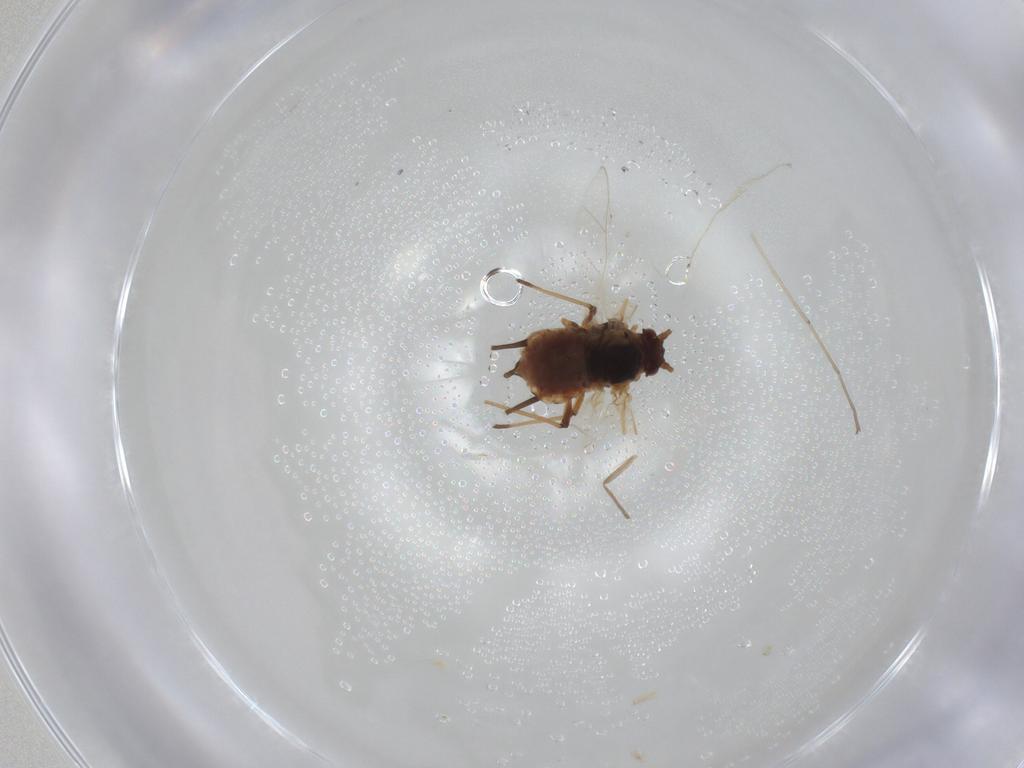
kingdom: Animalia
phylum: Arthropoda
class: Insecta
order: Hemiptera
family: Aphididae
